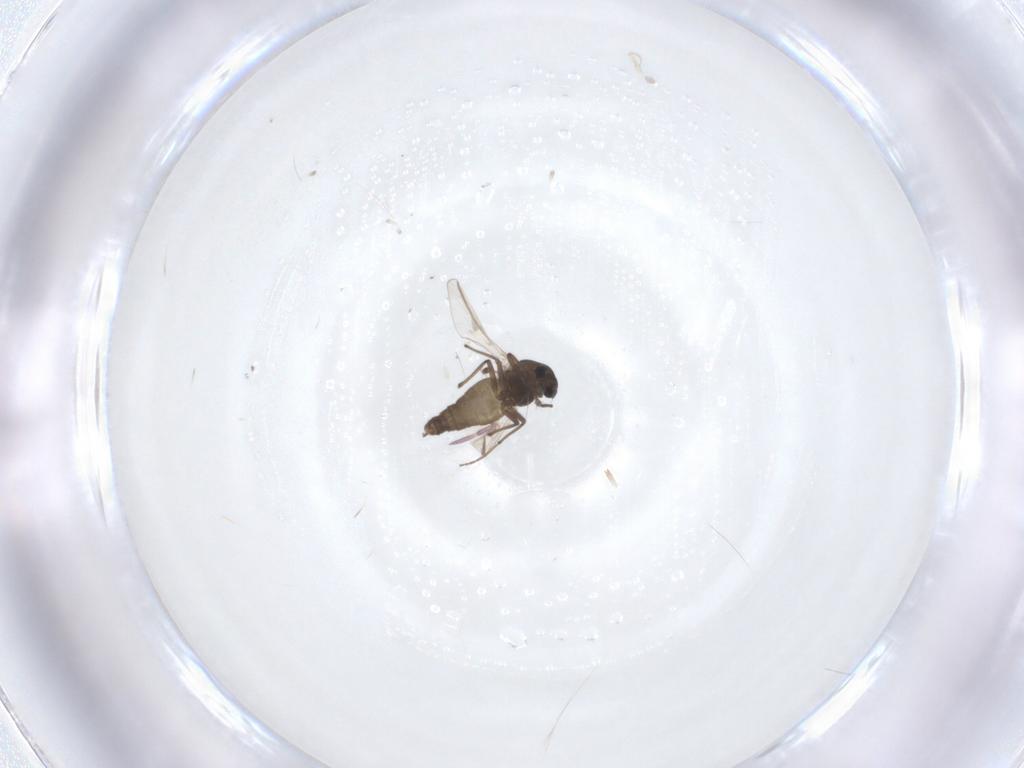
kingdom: Animalia
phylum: Arthropoda
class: Insecta
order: Diptera
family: Chironomidae
